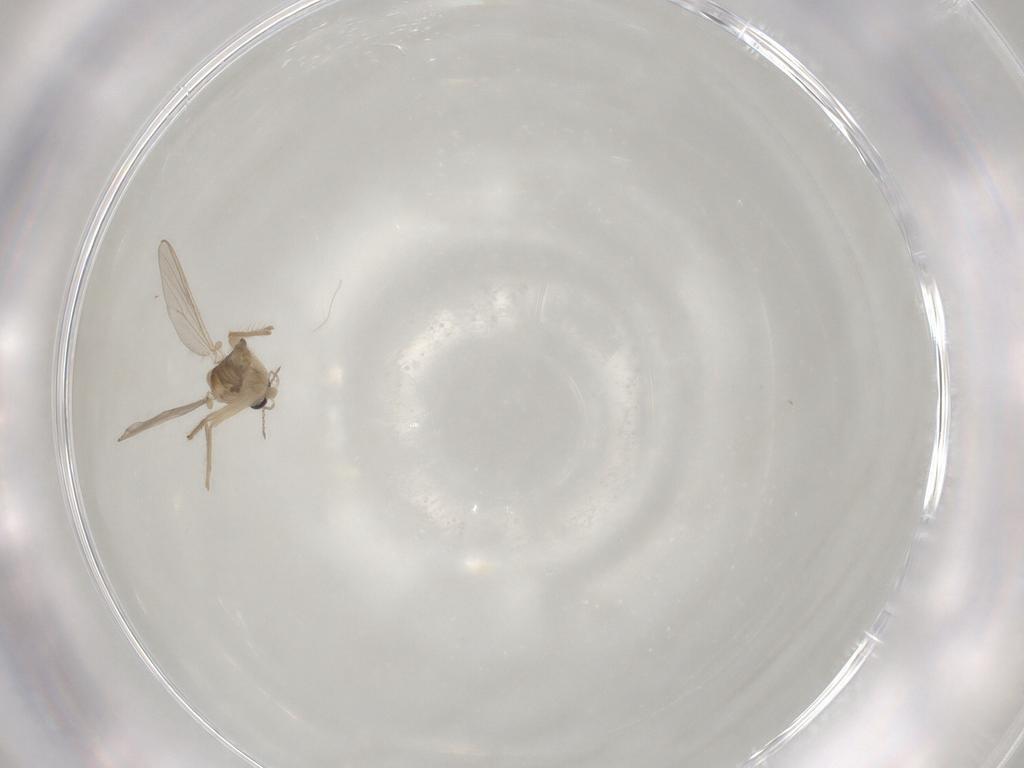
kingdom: Animalia
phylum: Arthropoda
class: Insecta
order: Diptera
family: Chironomidae
